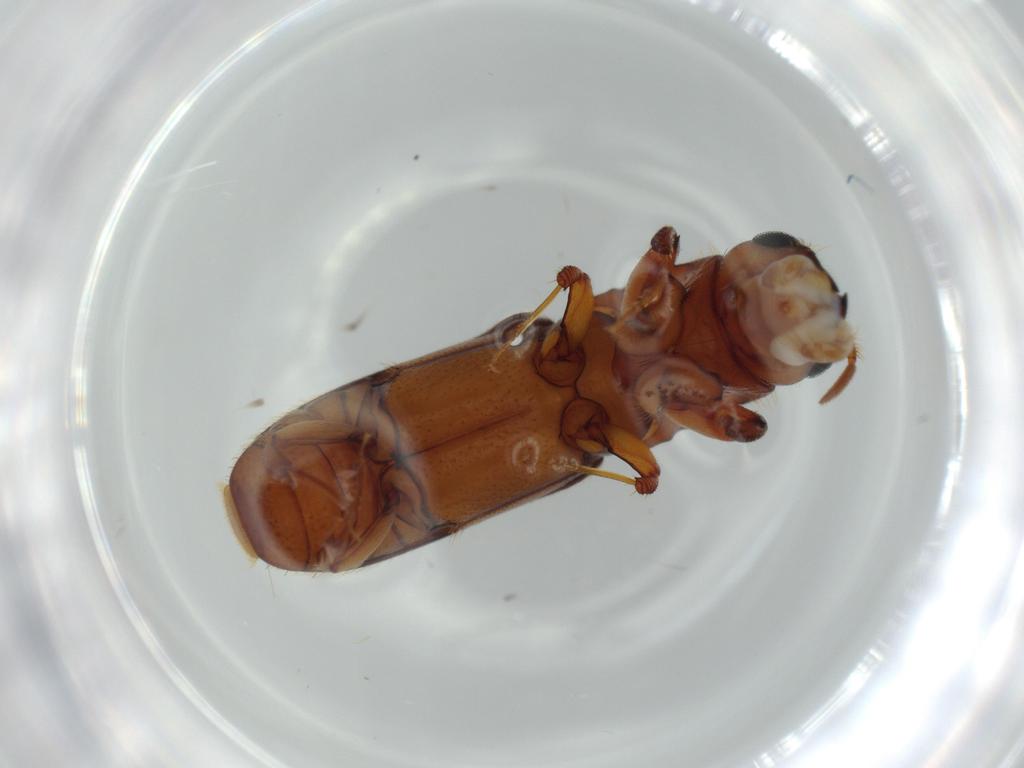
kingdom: Animalia
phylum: Arthropoda
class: Insecta
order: Coleoptera
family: Curculionidae
